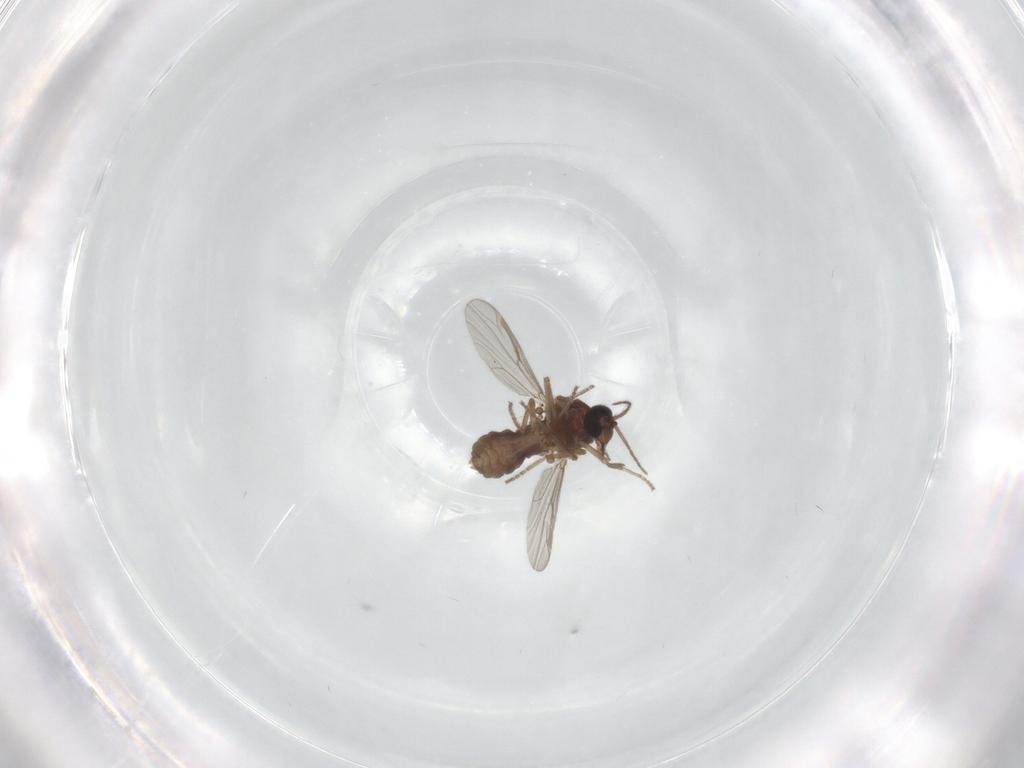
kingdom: Animalia
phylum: Arthropoda
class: Insecta
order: Diptera
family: Ceratopogonidae
